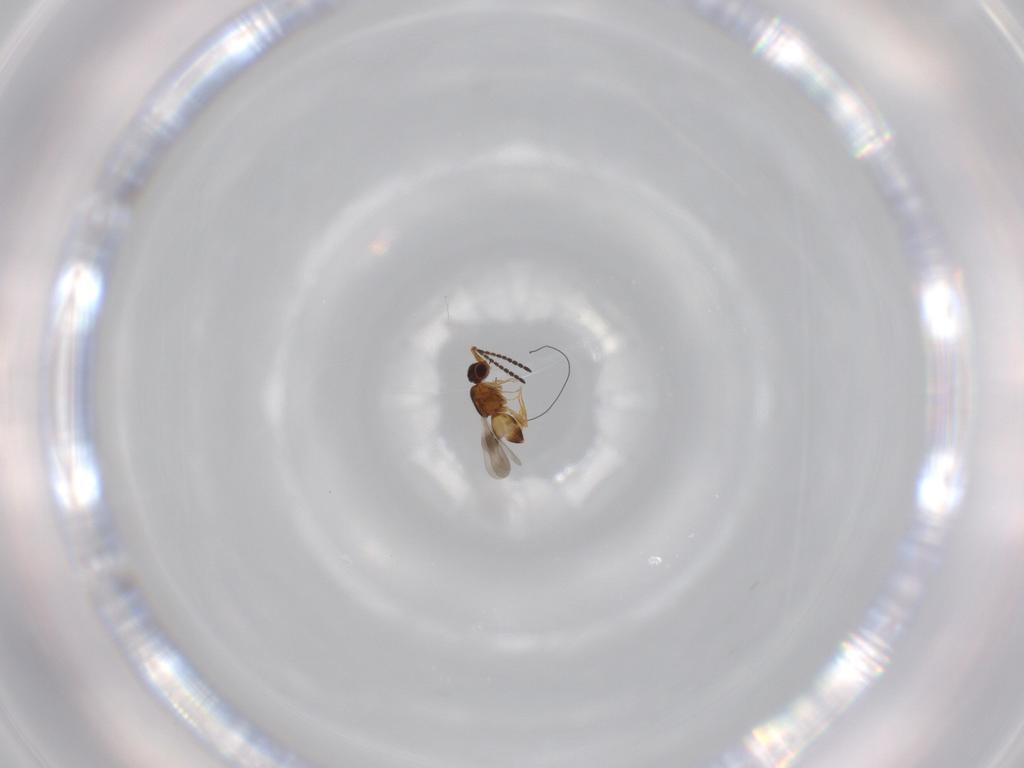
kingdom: Animalia
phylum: Arthropoda
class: Insecta
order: Hymenoptera
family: Ceraphronidae
